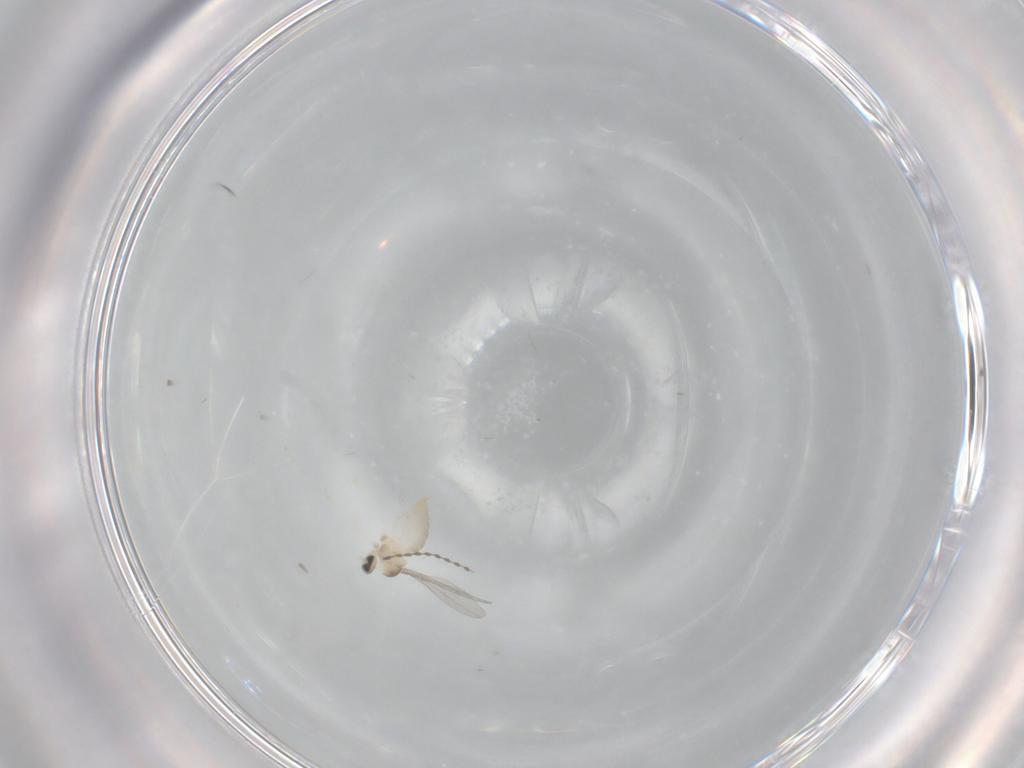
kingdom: Animalia
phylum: Arthropoda
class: Insecta
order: Diptera
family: Cecidomyiidae
